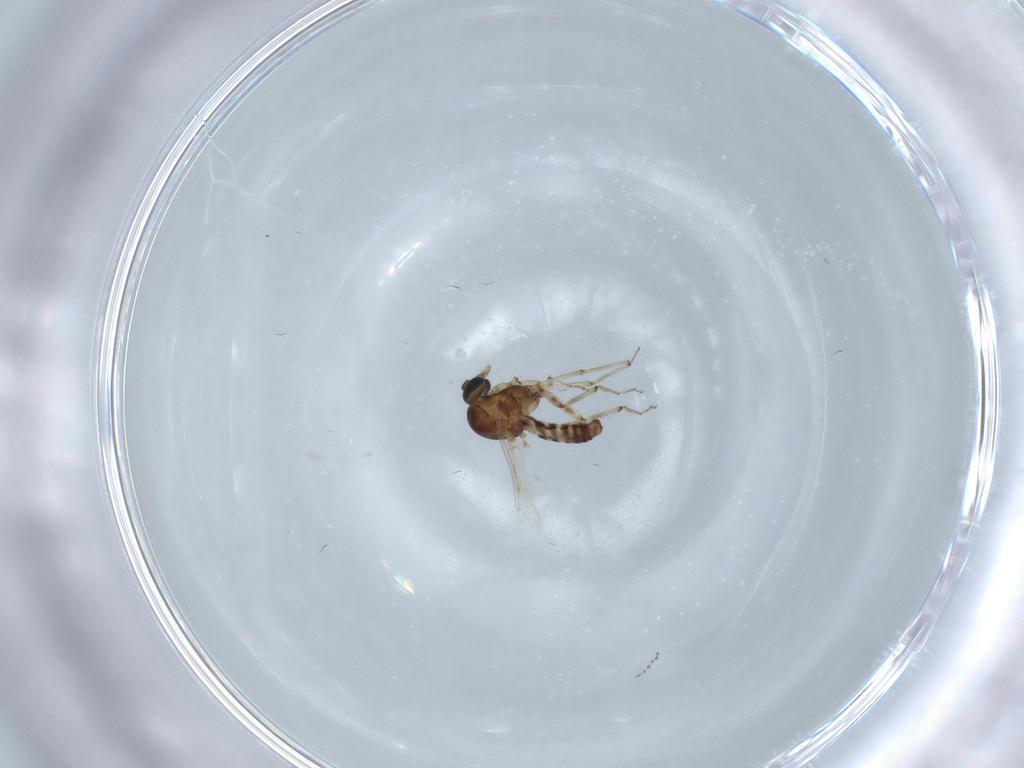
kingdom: Animalia
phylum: Arthropoda
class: Insecta
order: Diptera
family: Ceratopogonidae
